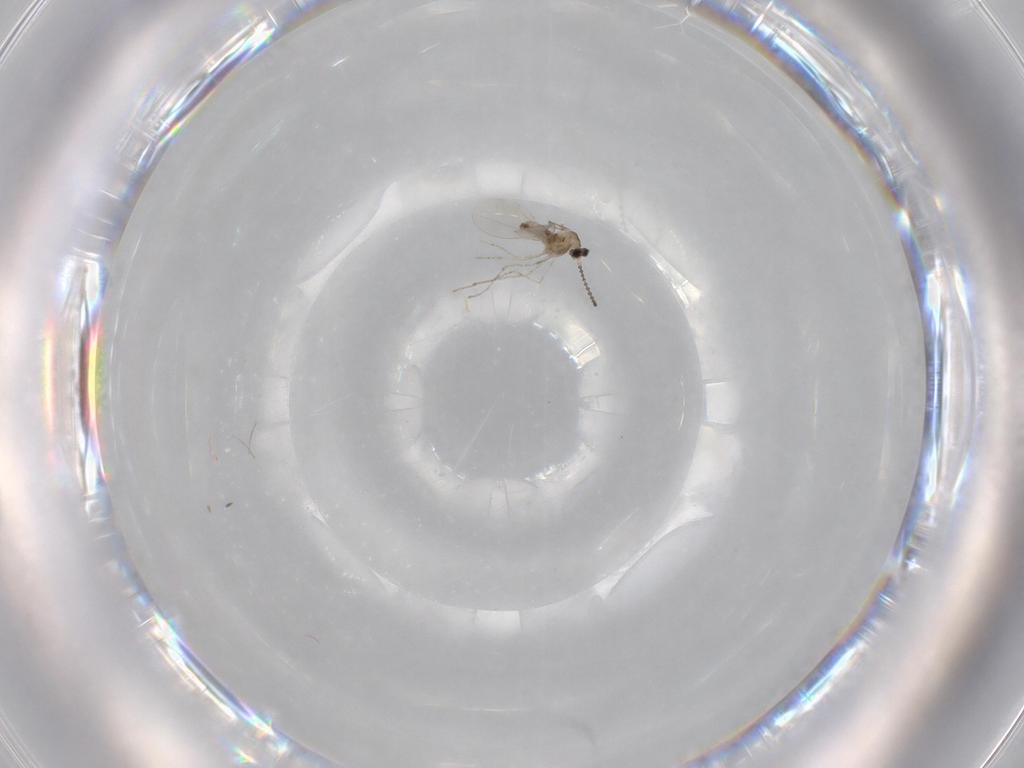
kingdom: Animalia
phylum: Arthropoda
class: Insecta
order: Diptera
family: Cecidomyiidae
